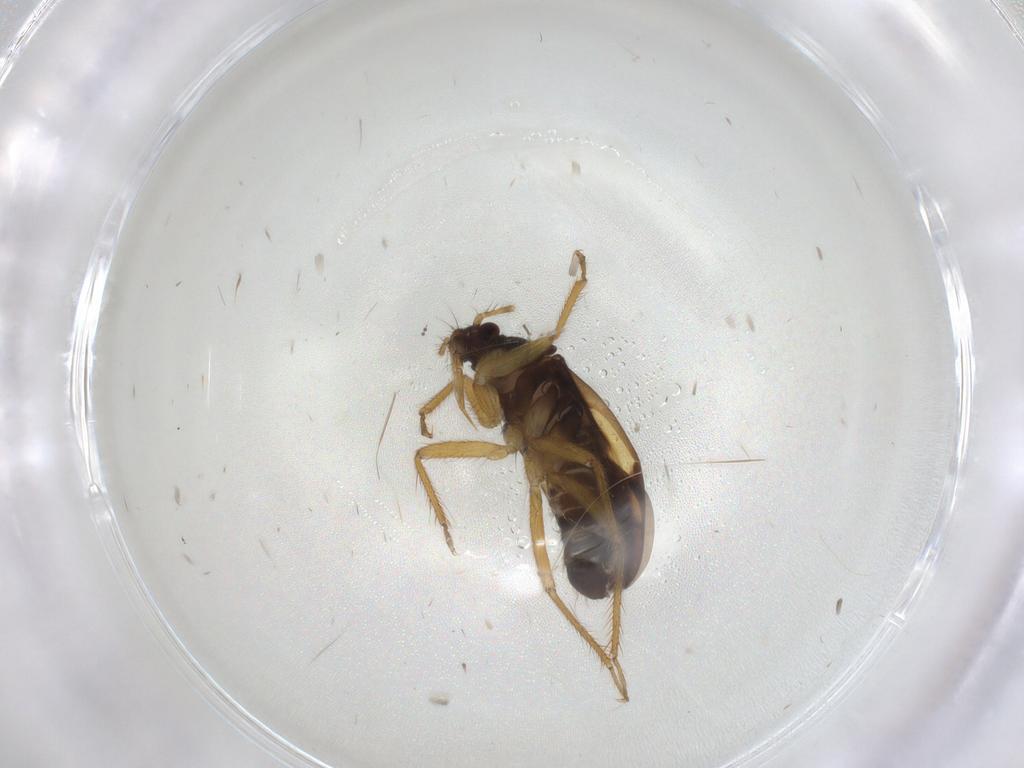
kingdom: Animalia
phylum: Arthropoda
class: Insecta
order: Hemiptera
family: Ceratocombidae
